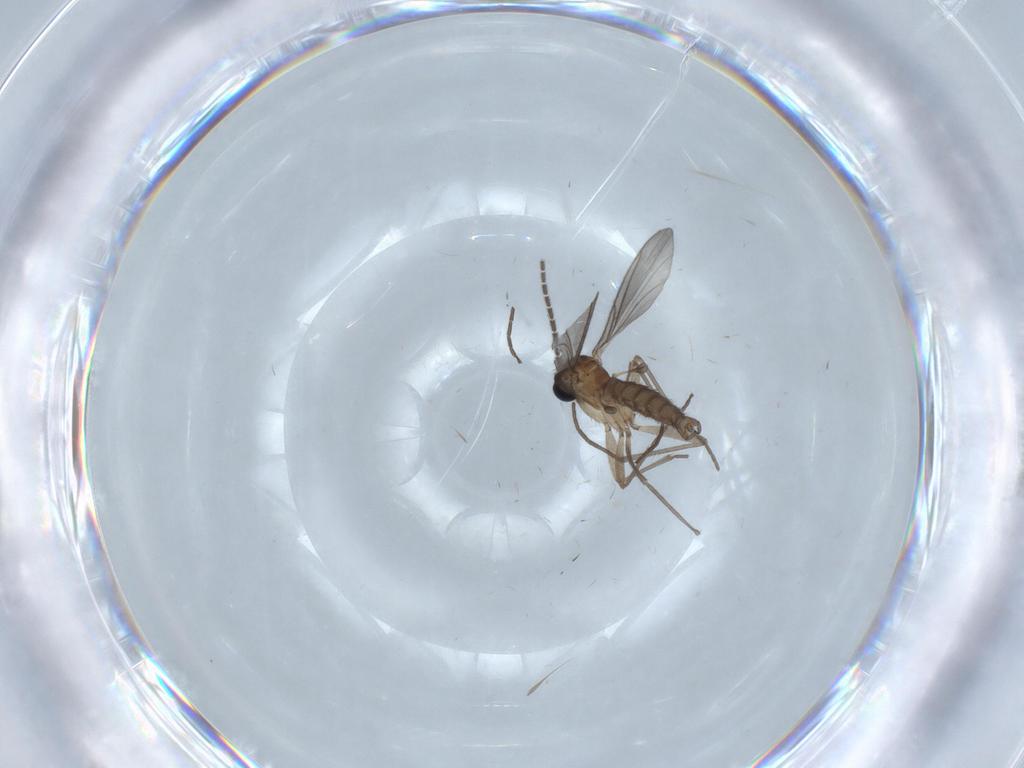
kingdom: Animalia
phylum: Arthropoda
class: Insecta
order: Diptera
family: Sciaridae
